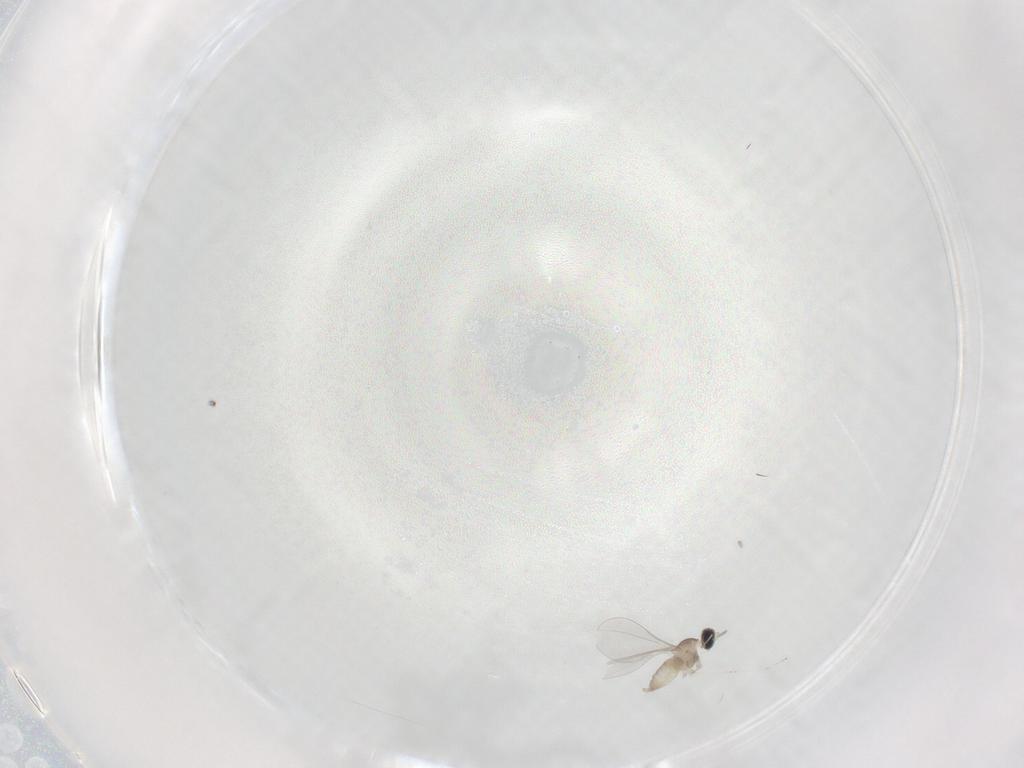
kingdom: Animalia
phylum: Arthropoda
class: Insecta
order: Diptera
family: Cecidomyiidae
